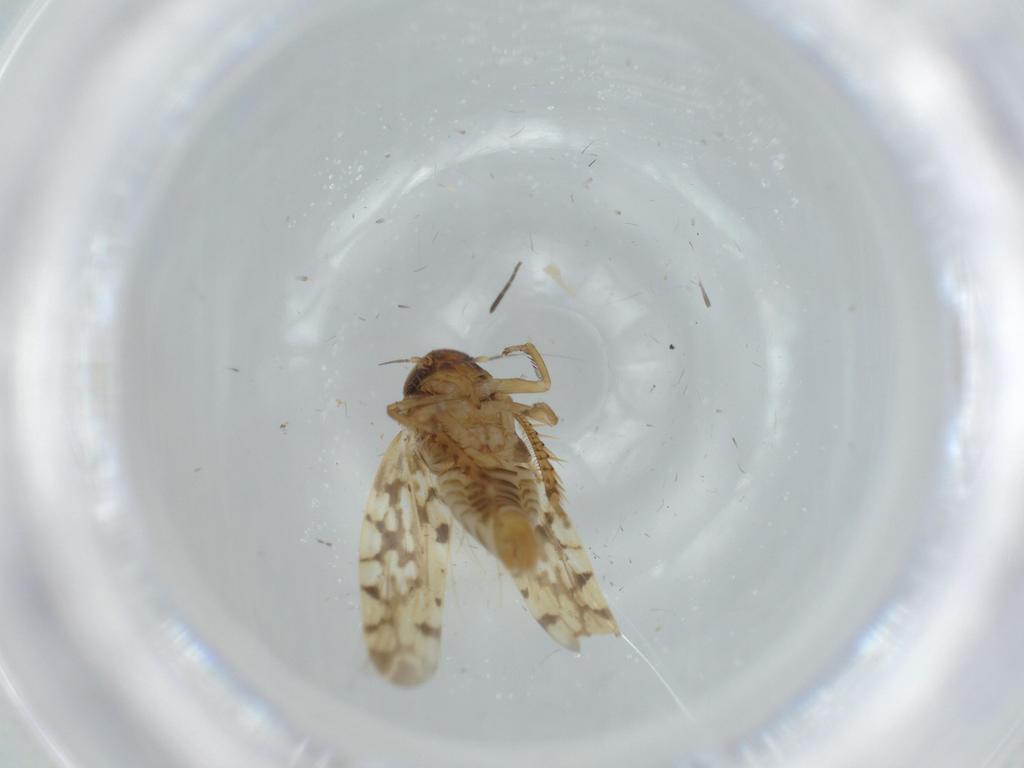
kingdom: Animalia
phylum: Arthropoda
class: Insecta
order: Hemiptera
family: Cicadellidae
